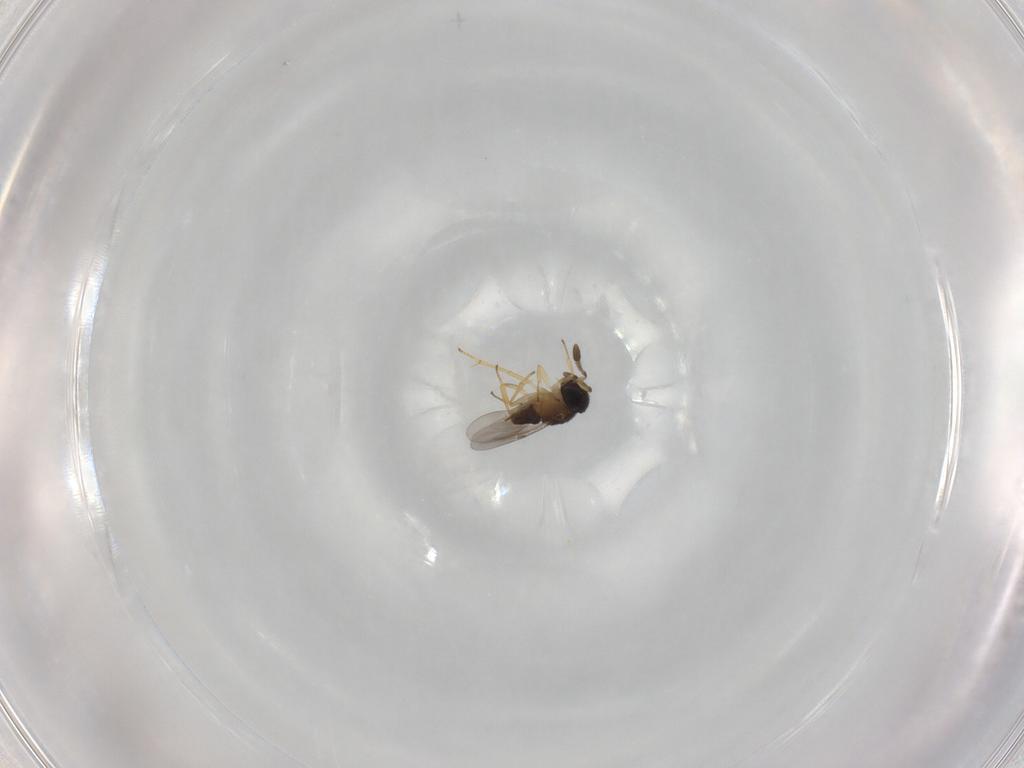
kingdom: Animalia
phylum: Arthropoda
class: Insecta
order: Hymenoptera
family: Encyrtidae
